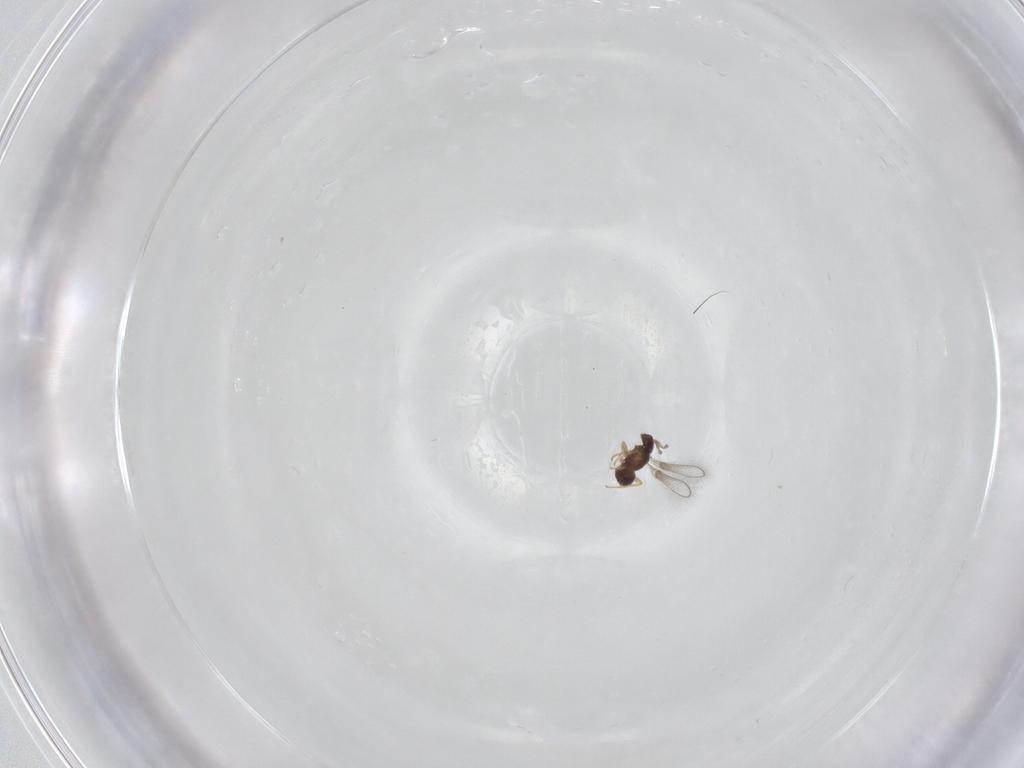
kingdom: Animalia
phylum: Arthropoda
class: Insecta
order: Hymenoptera
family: Mymaridae
